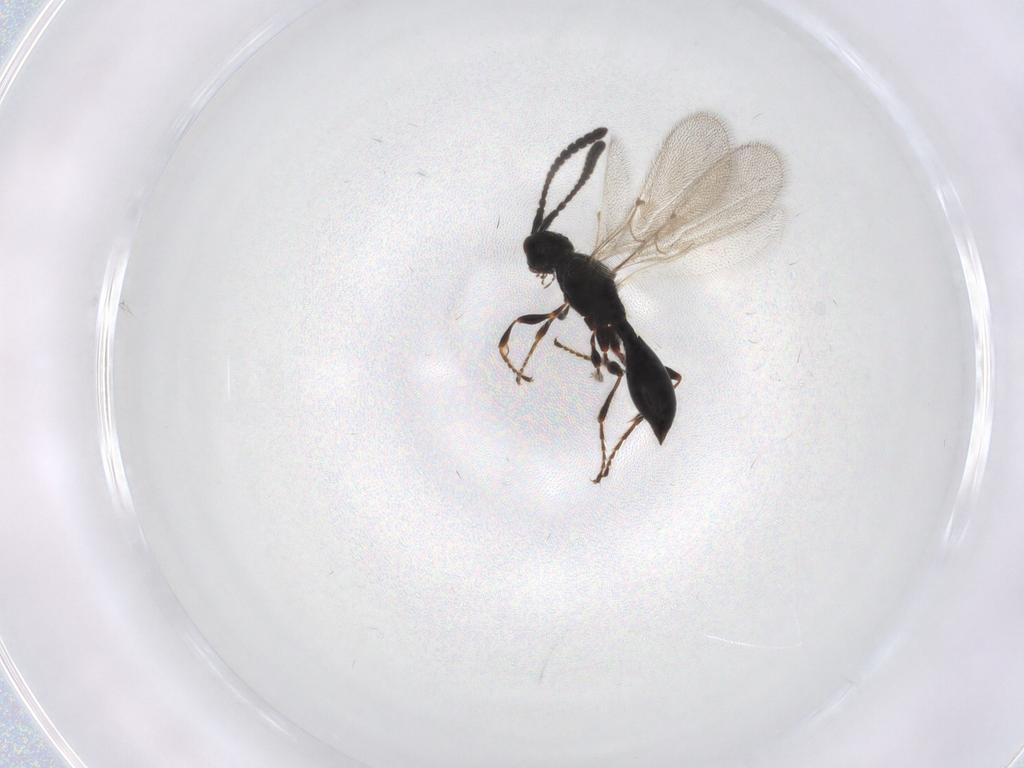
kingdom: Animalia
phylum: Arthropoda
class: Insecta
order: Hymenoptera
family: Diapriidae
